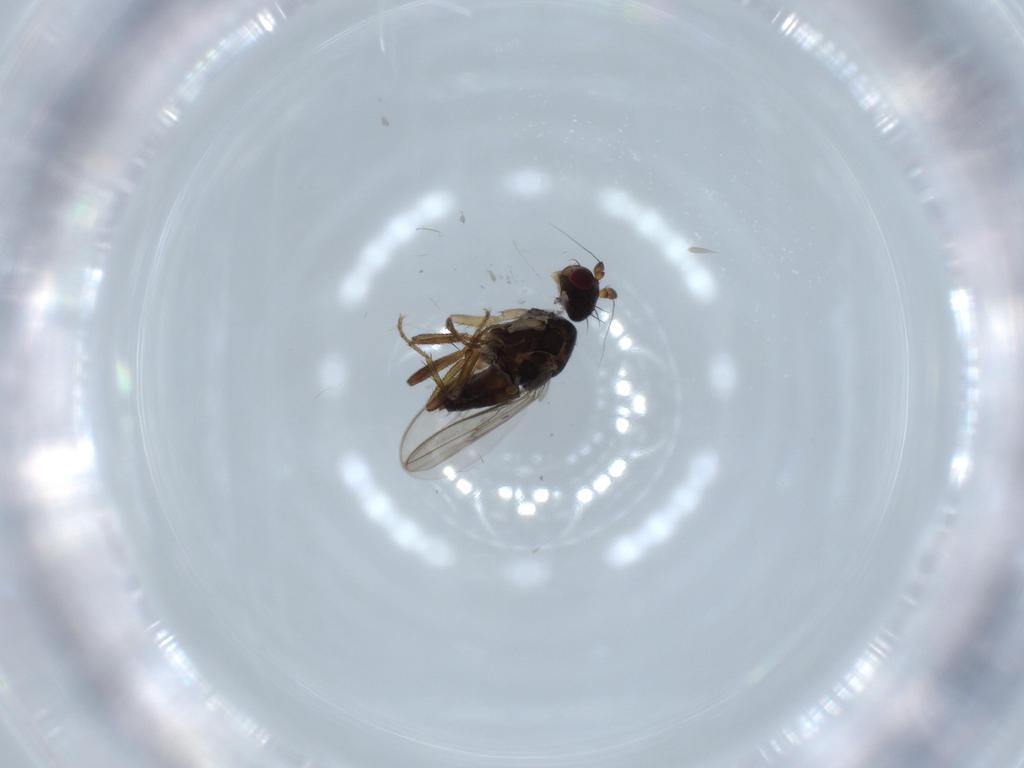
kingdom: Animalia
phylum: Arthropoda
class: Insecta
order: Diptera
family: Sphaeroceridae
